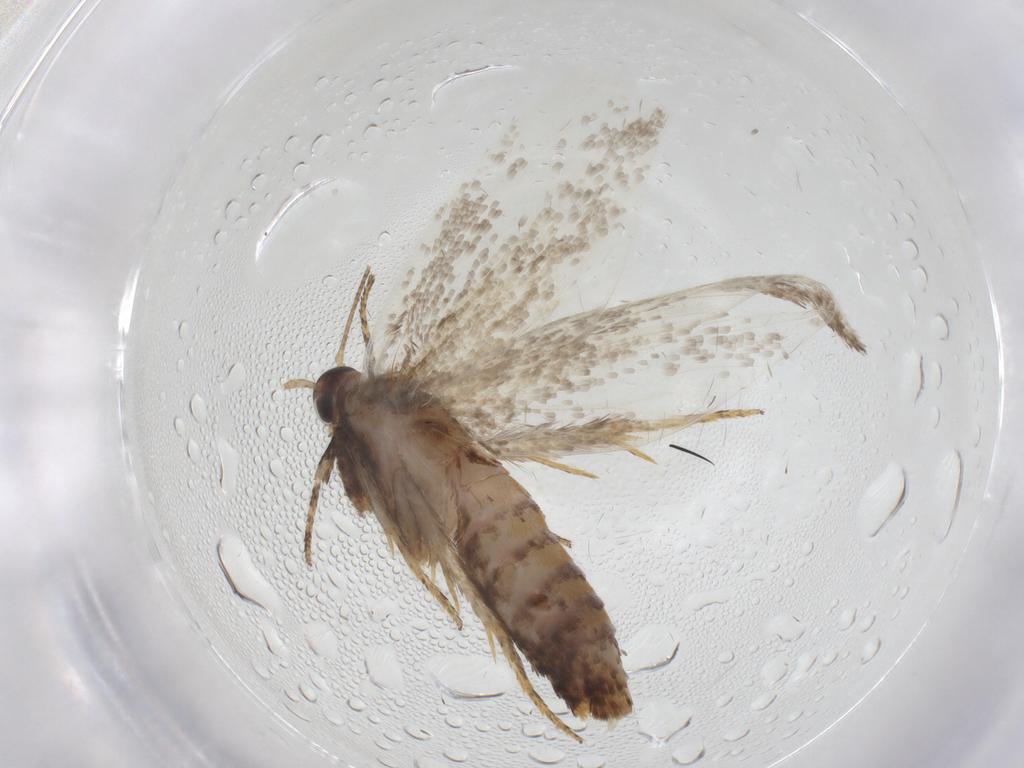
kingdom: Animalia
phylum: Arthropoda
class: Insecta
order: Lepidoptera
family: Oecophoridae
